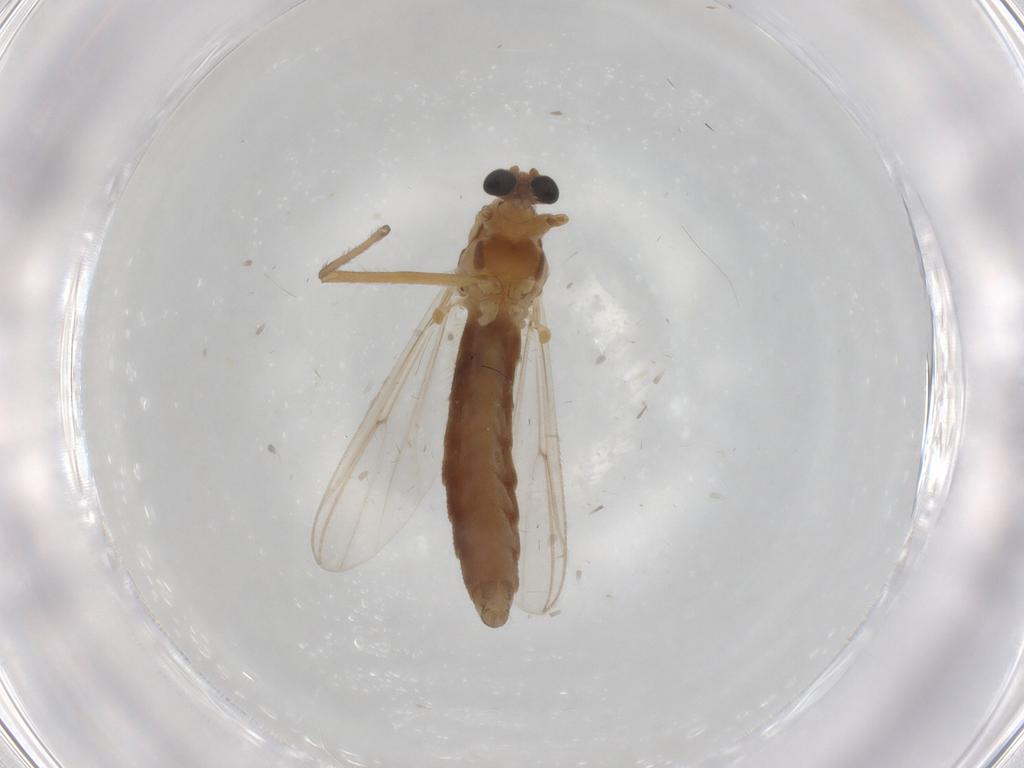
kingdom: Animalia
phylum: Arthropoda
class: Insecta
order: Diptera
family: Chironomidae
